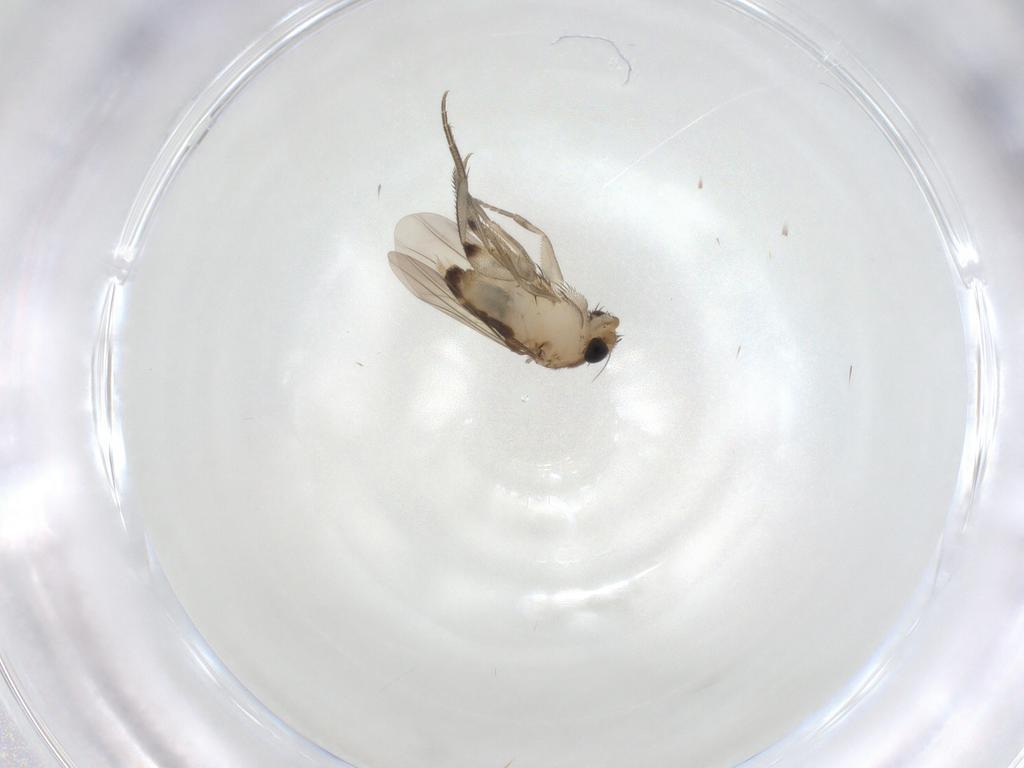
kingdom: Animalia
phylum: Arthropoda
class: Insecta
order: Diptera
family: Phoridae
